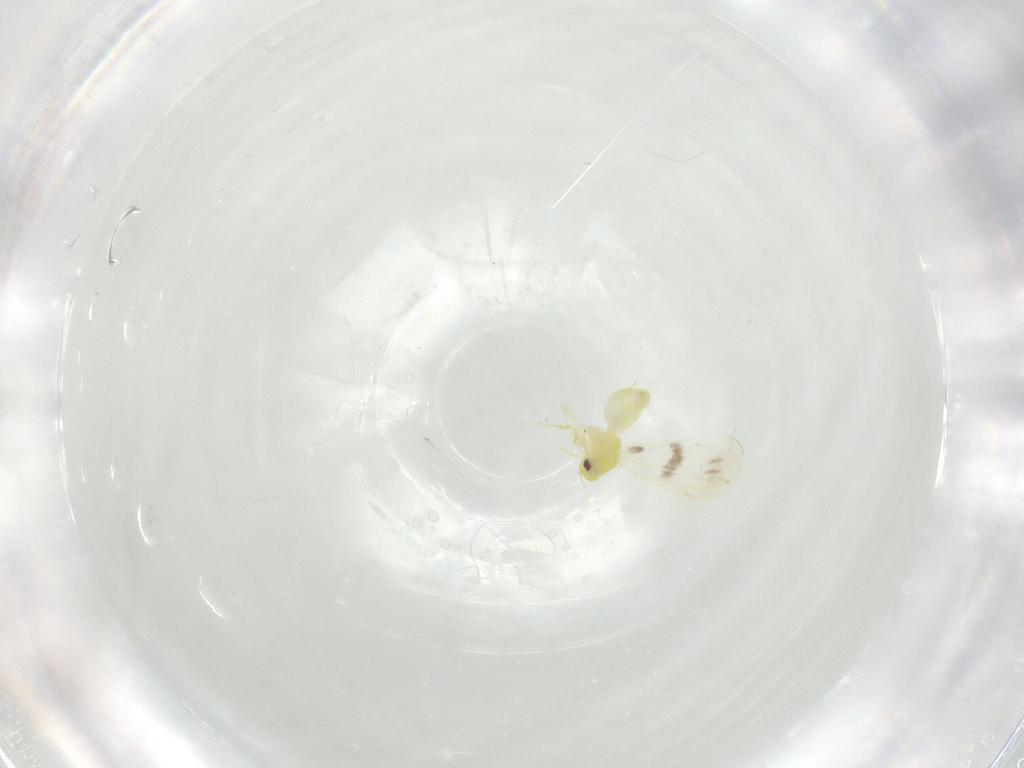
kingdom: Animalia
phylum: Arthropoda
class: Insecta
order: Hemiptera
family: Aleyrodidae
